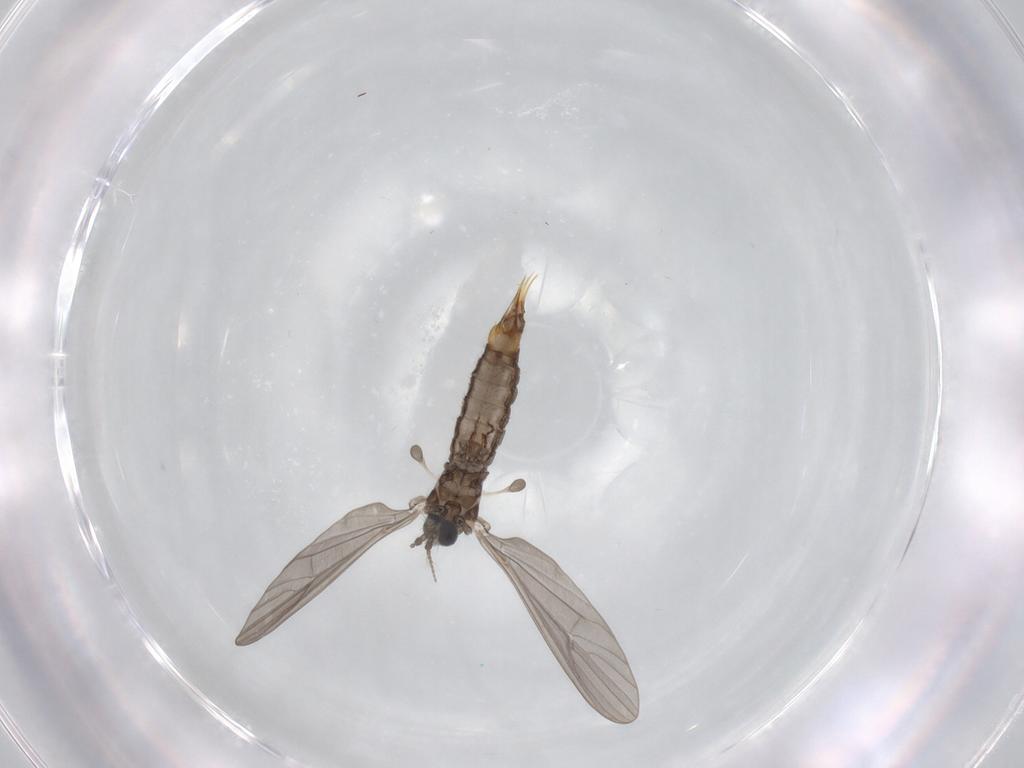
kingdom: Animalia
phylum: Arthropoda
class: Insecta
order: Diptera
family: Limoniidae
